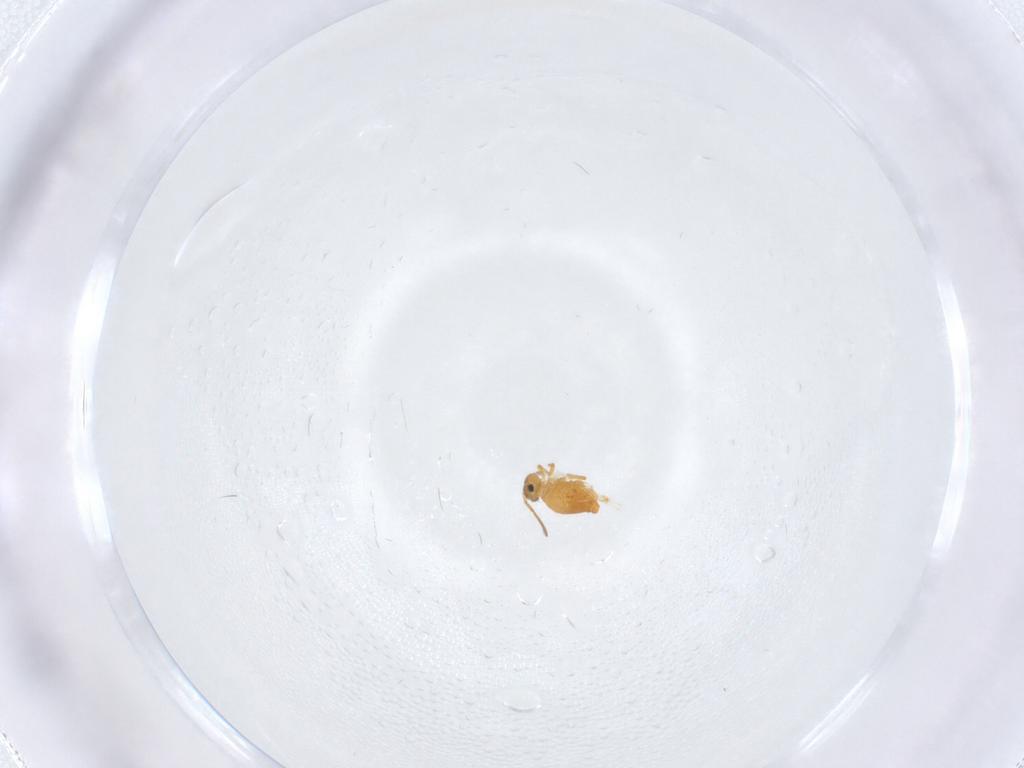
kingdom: Animalia
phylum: Arthropoda
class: Collembola
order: Symphypleona
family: Katiannidae
